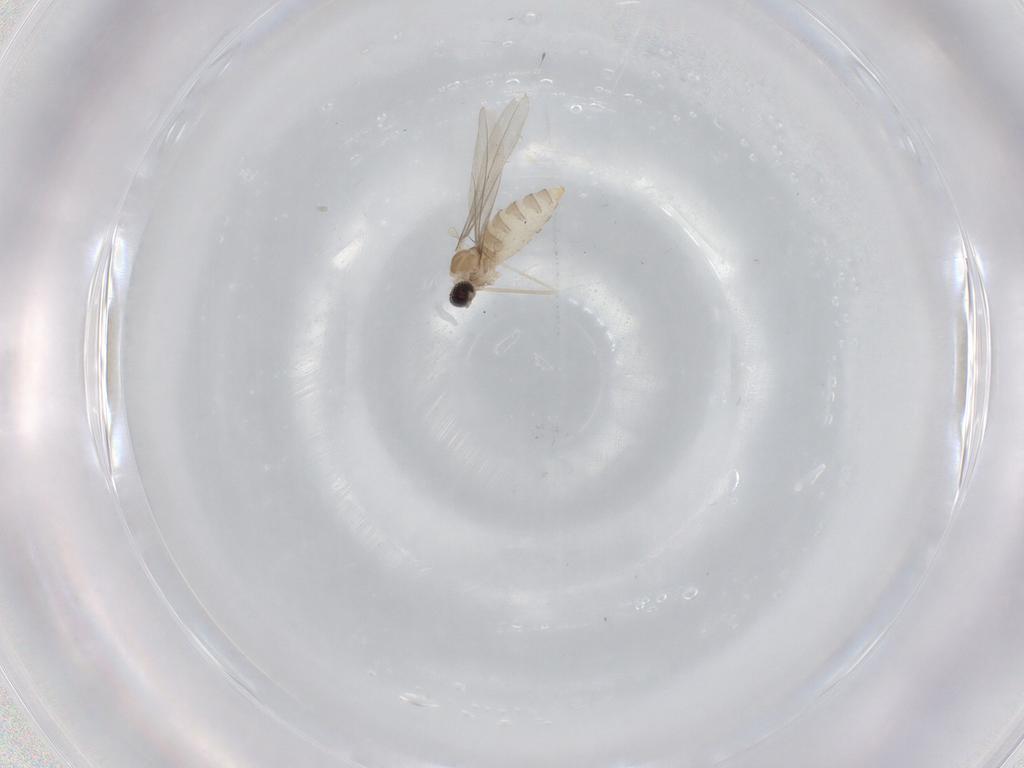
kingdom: Animalia
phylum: Arthropoda
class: Insecta
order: Diptera
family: Cecidomyiidae
